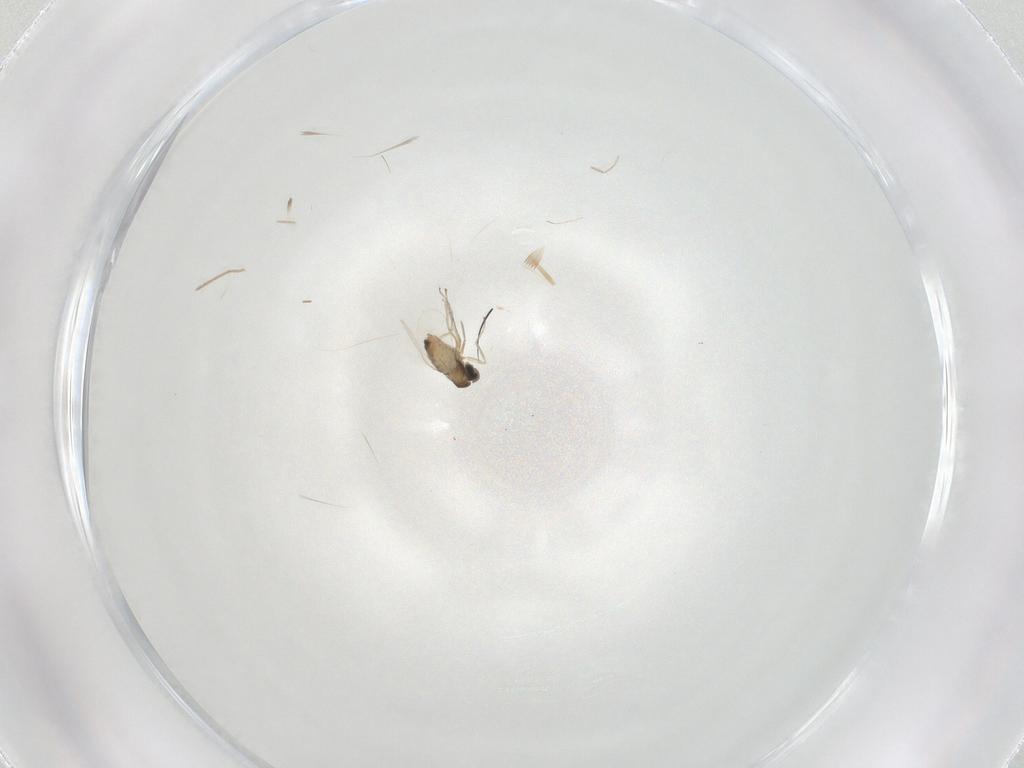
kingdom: Animalia
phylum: Arthropoda
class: Insecta
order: Diptera
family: Cecidomyiidae
